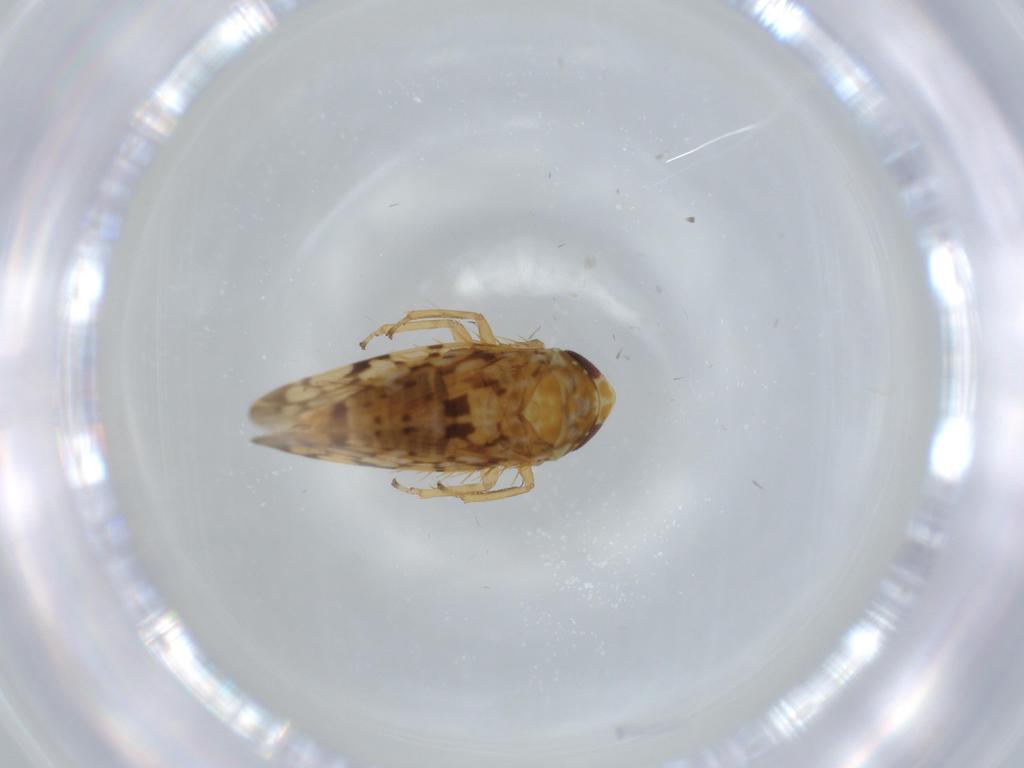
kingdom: Animalia
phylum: Arthropoda
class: Insecta
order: Hemiptera
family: Cicadellidae
